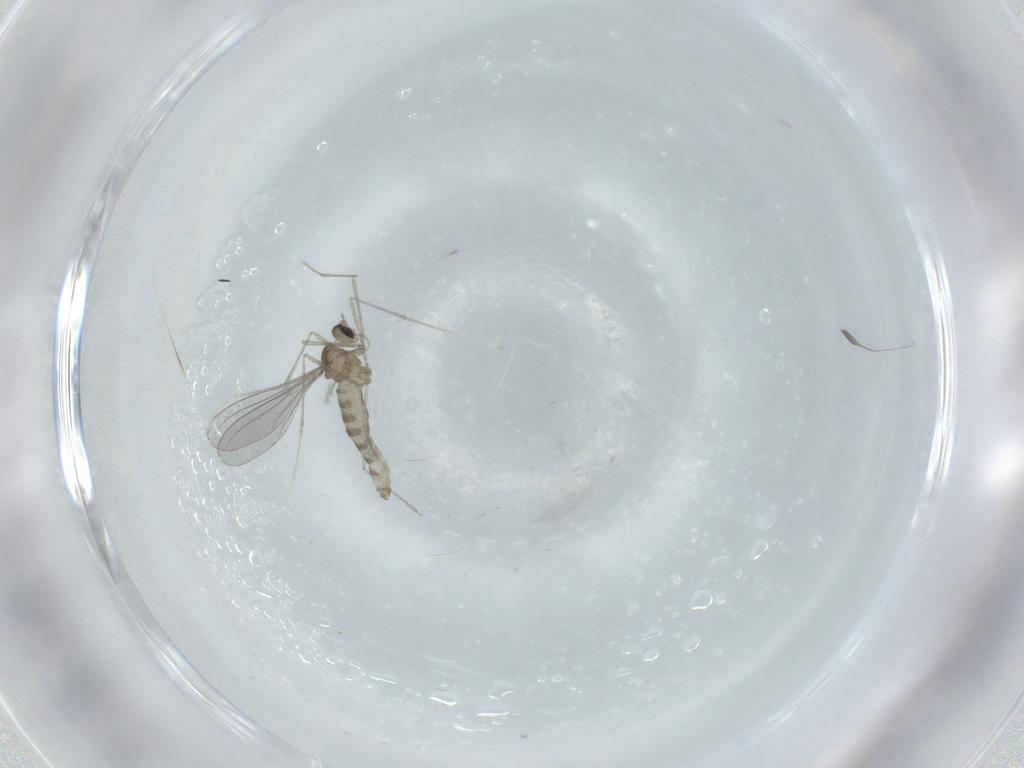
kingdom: Animalia
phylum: Arthropoda
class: Insecta
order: Diptera
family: Cecidomyiidae
